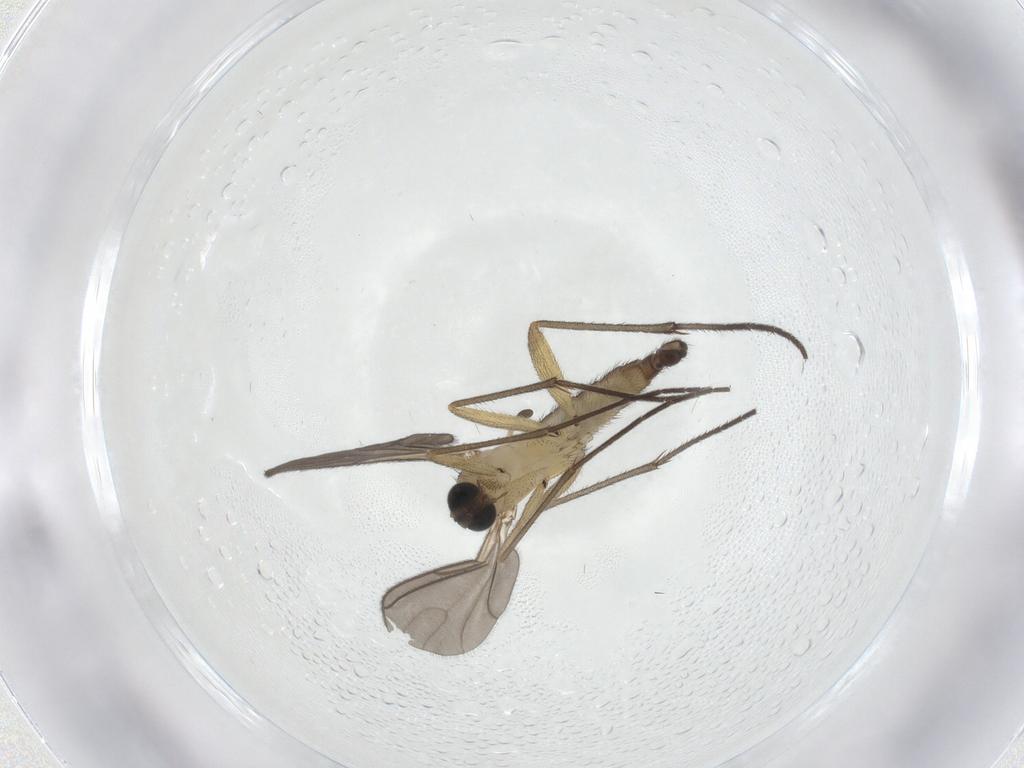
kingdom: Animalia
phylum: Arthropoda
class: Insecta
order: Diptera
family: Sciaridae
